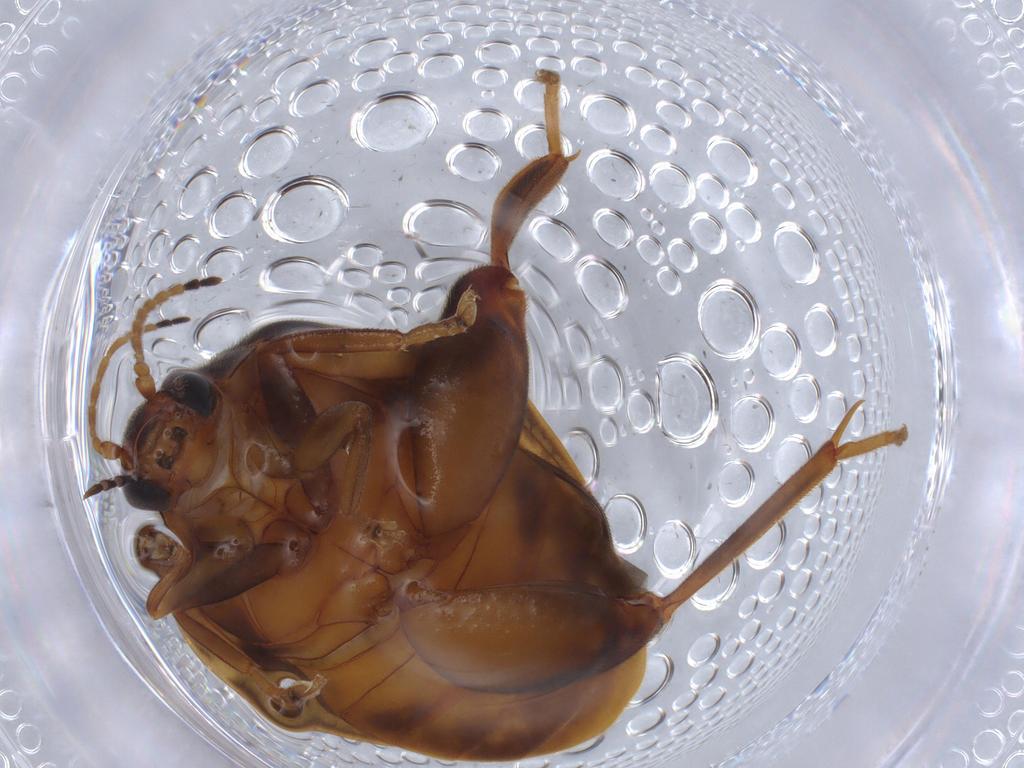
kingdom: Animalia
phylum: Arthropoda
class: Insecta
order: Coleoptera
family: Scirtidae
